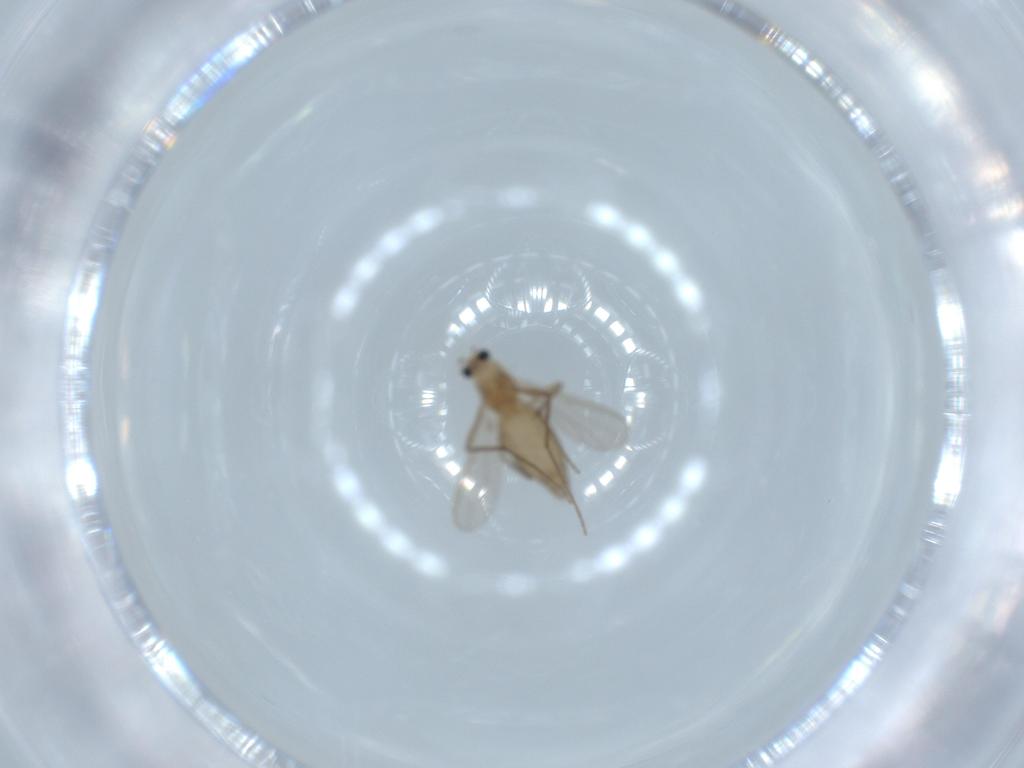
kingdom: Animalia
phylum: Arthropoda
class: Insecta
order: Diptera
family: Chironomidae
